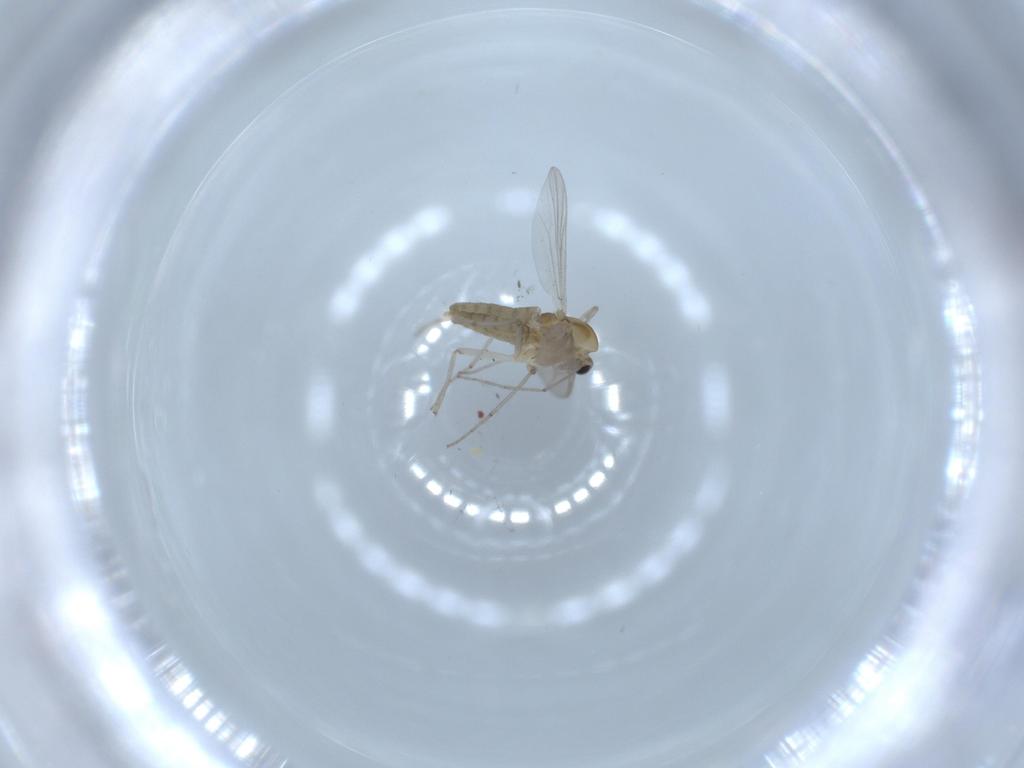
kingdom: Animalia
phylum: Arthropoda
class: Insecta
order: Diptera
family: Chironomidae
